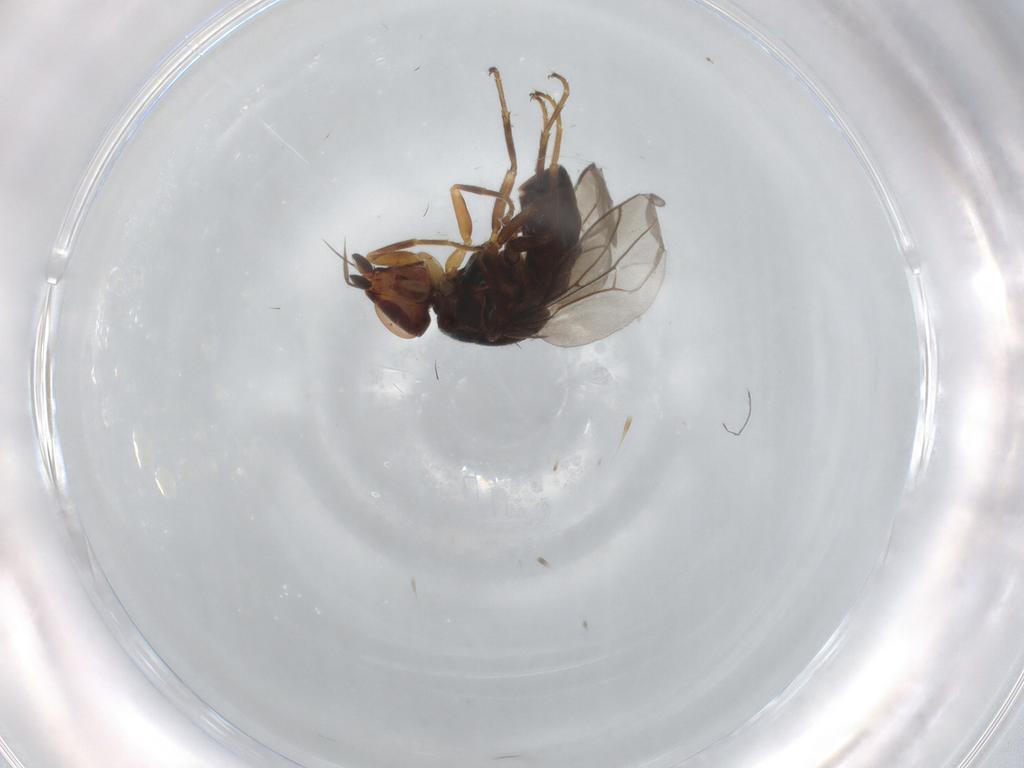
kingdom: Animalia
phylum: Arthropoda
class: Insecta
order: Diptera
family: Chloropidae
